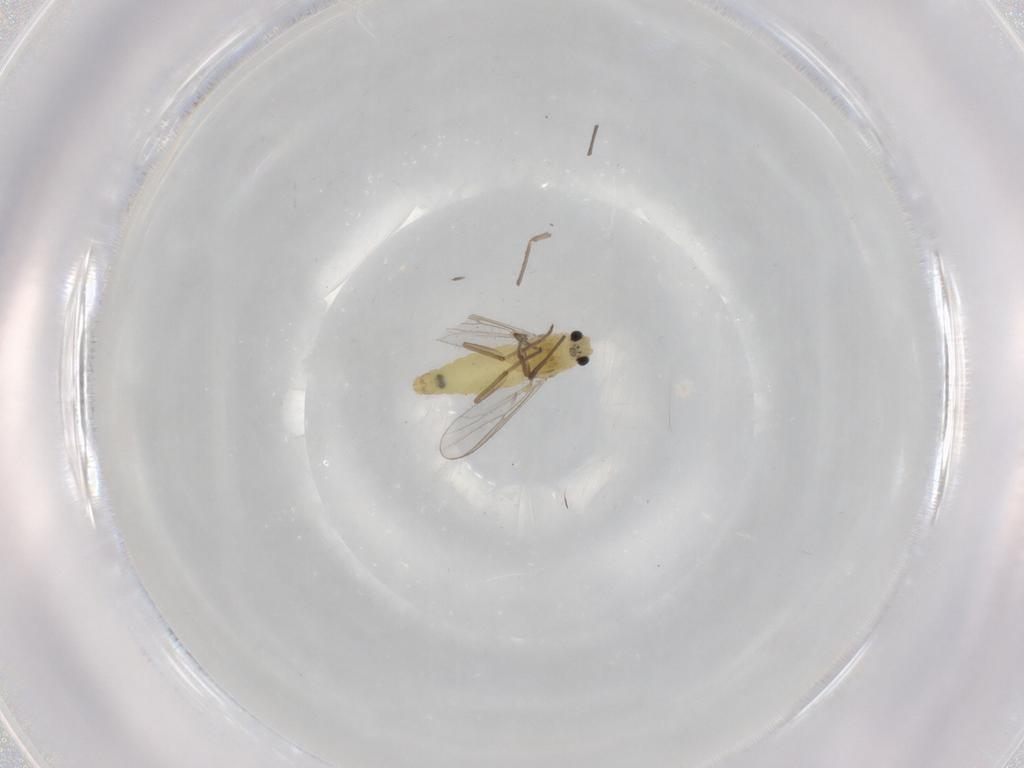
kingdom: Animalia
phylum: Arthropoda
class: Insecta
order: Diptera
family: Chironomidae
